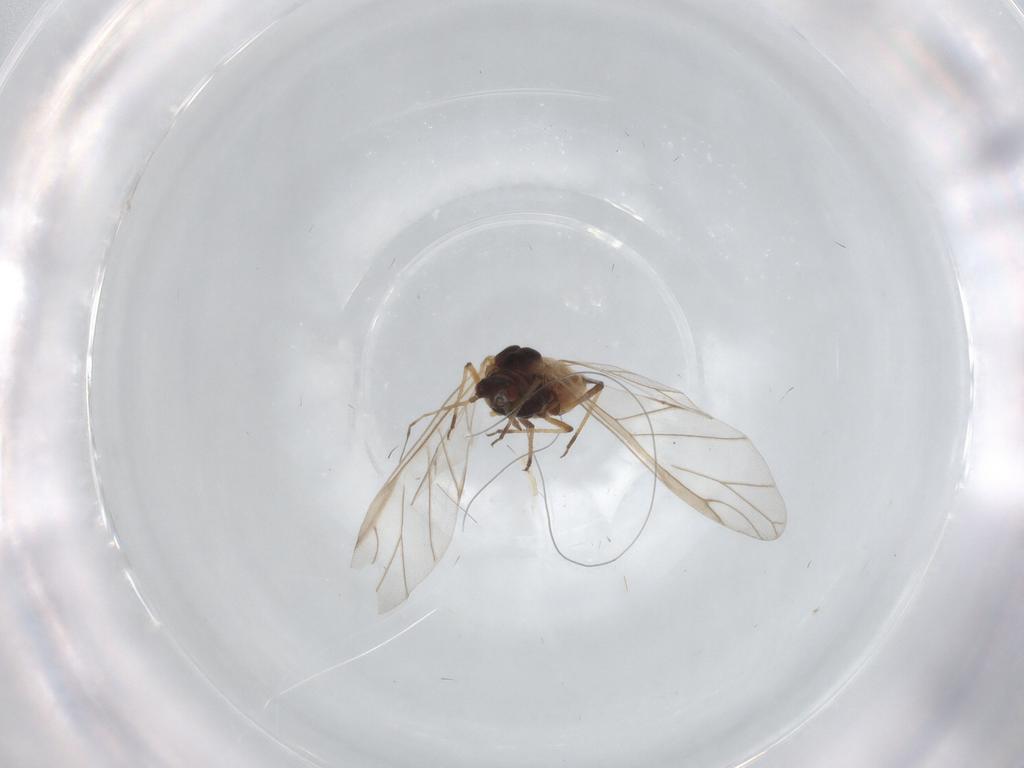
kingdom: Animalia
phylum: Arthropoda
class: Insecta
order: Hemiptera
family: Aphididae
